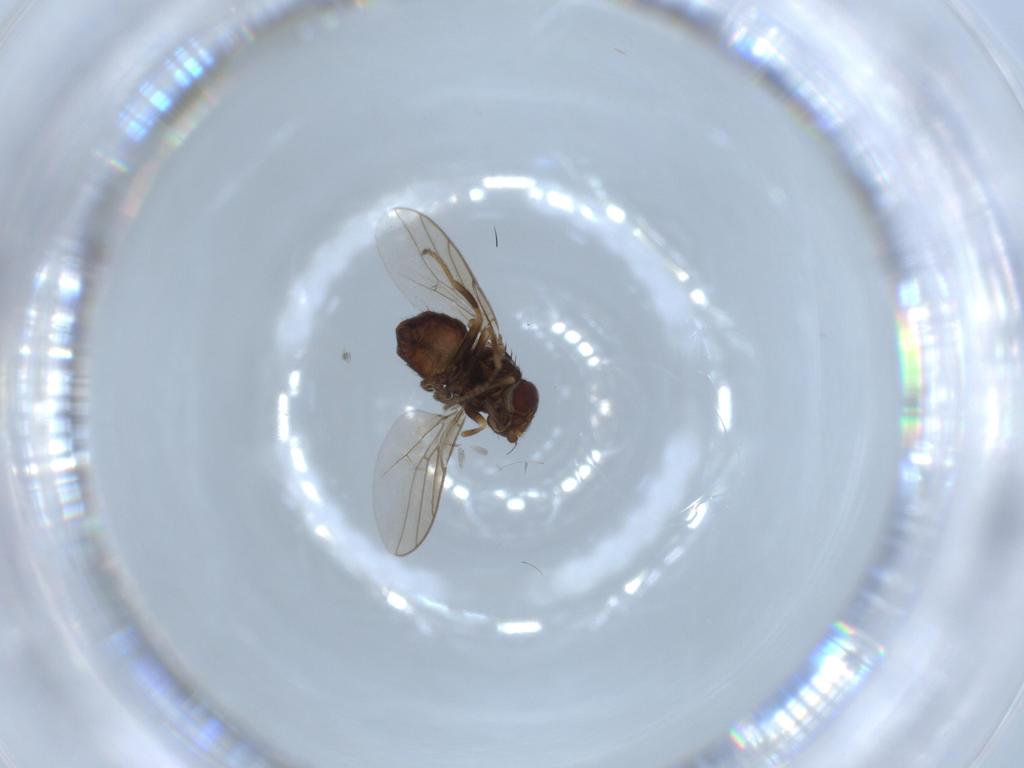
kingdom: Animalia
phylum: Arthropoda
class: Insecta
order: Diptera
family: Chloropidae
